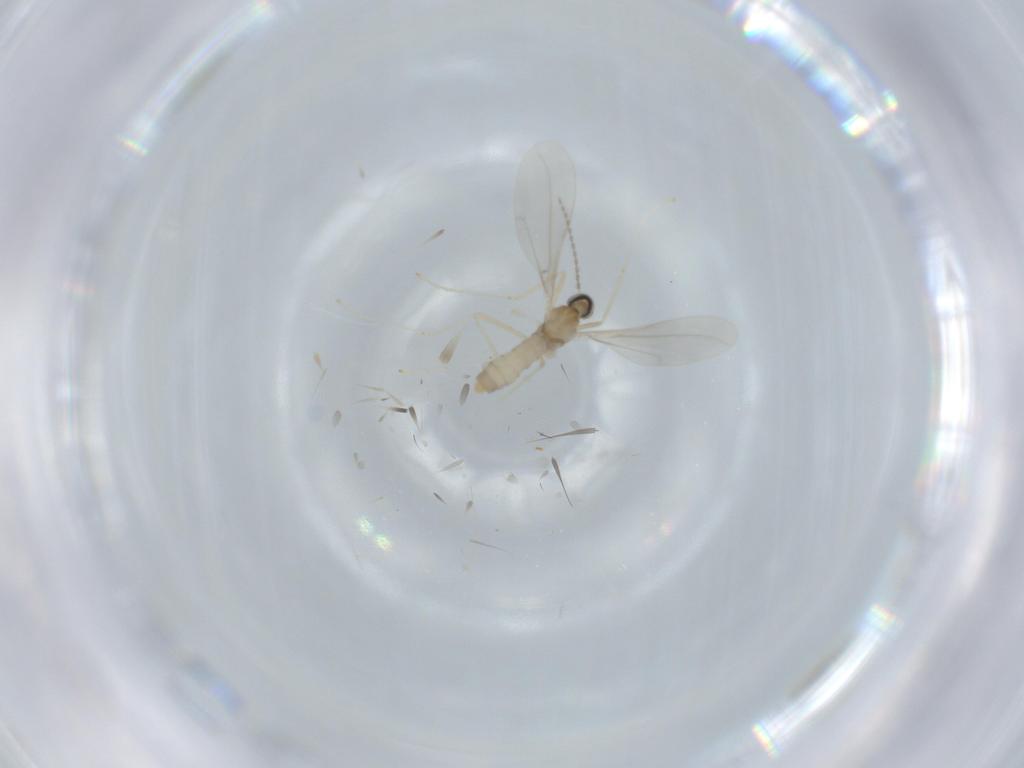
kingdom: Animalia
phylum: Arthropoda
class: Insecta
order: Diptera
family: Cecidomyiidae
